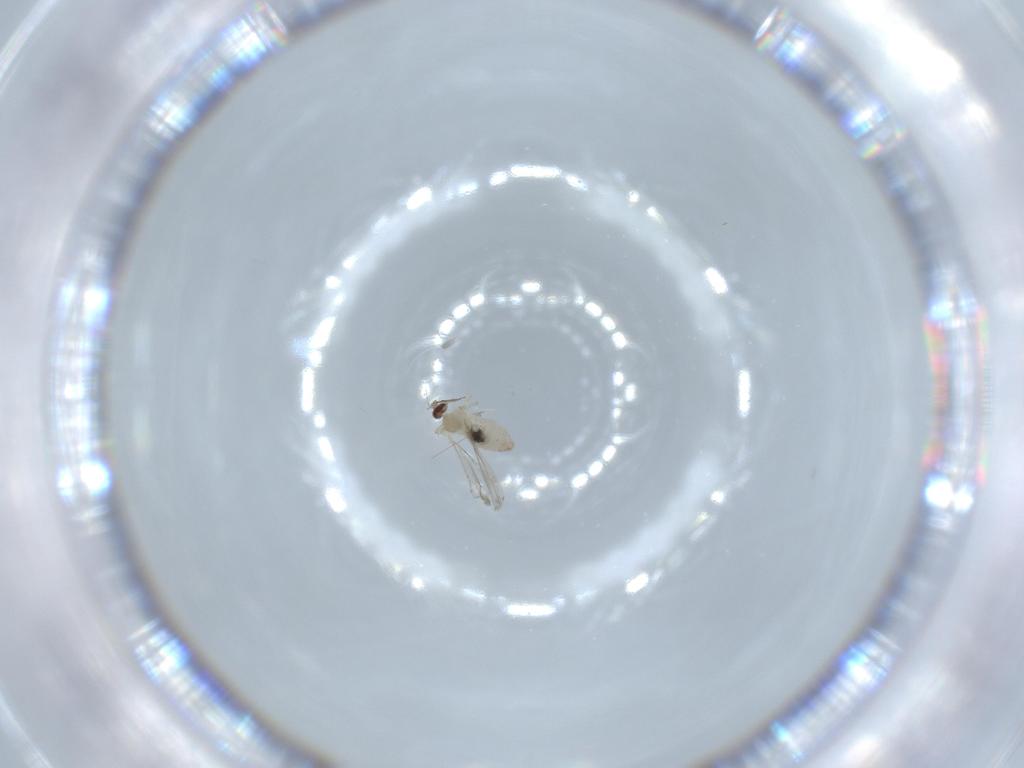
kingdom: Animalia
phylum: Arthropoda
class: Insecta
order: Diptera
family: Cecidomyiidae
